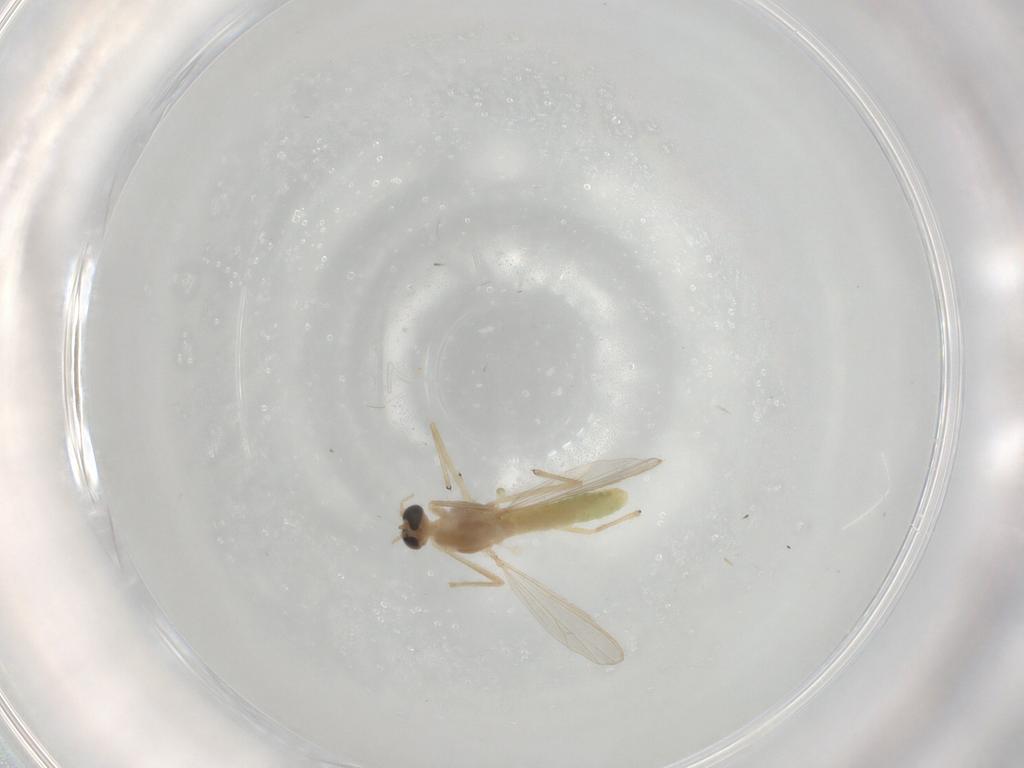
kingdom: Animalia
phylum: Arthropoda
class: Insecta
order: Diptera
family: Chironomidae
